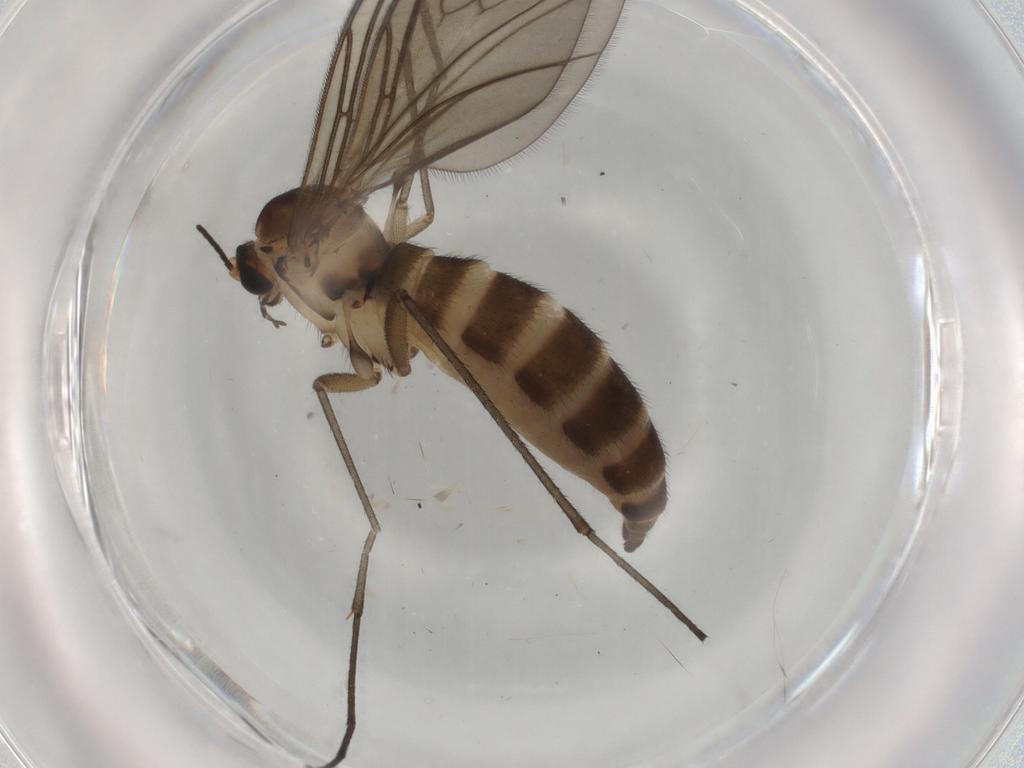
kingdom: Animalia
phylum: Arthropoda
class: Insecta
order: Diptera
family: Sciaridae
